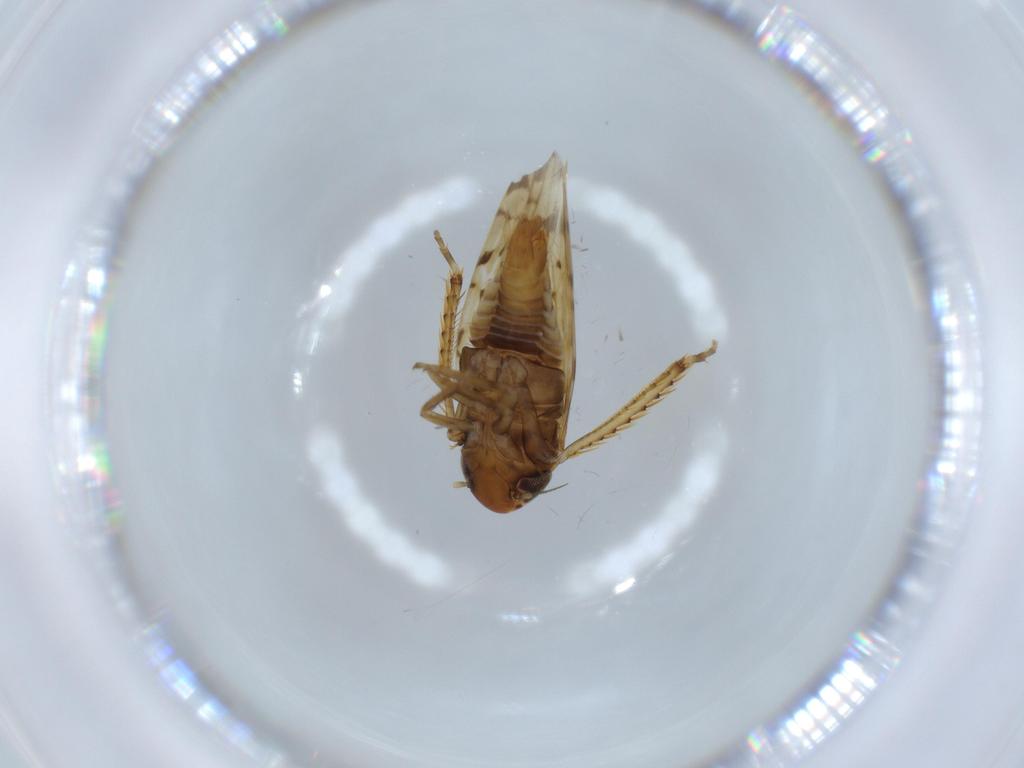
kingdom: Animalia
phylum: Arthropoda
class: Insecta
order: Hemiptera
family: Cicadellidae
